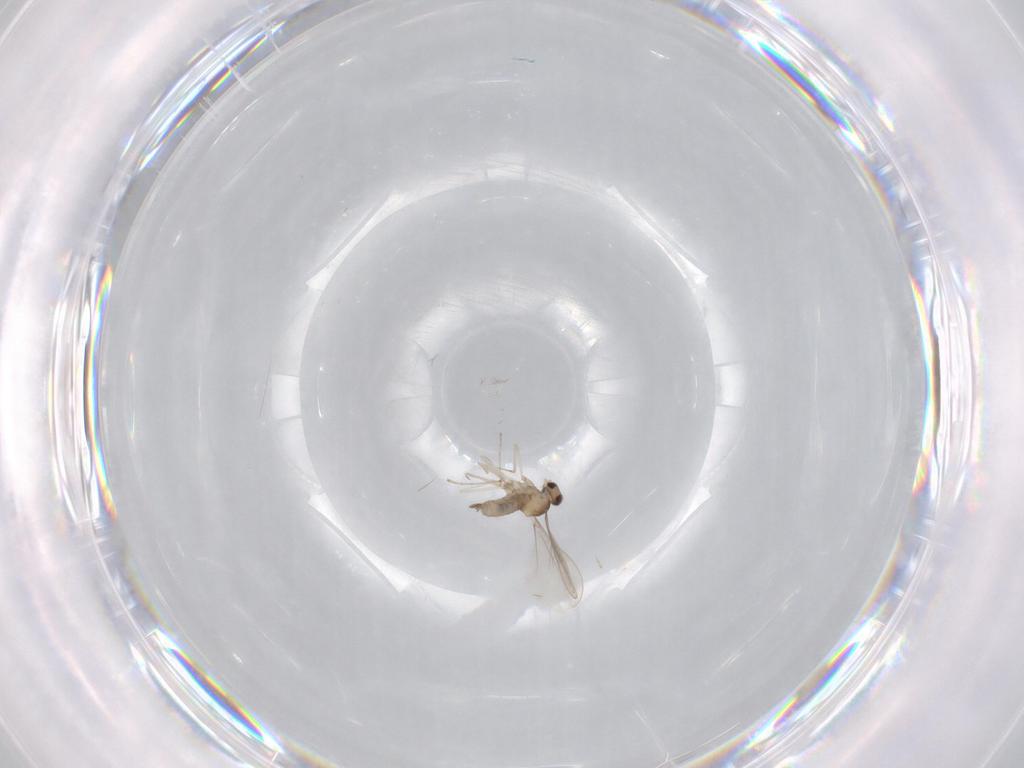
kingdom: Animalia
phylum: Arthropoda
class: Insecta
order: Diptera
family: Cecidomyiidae
